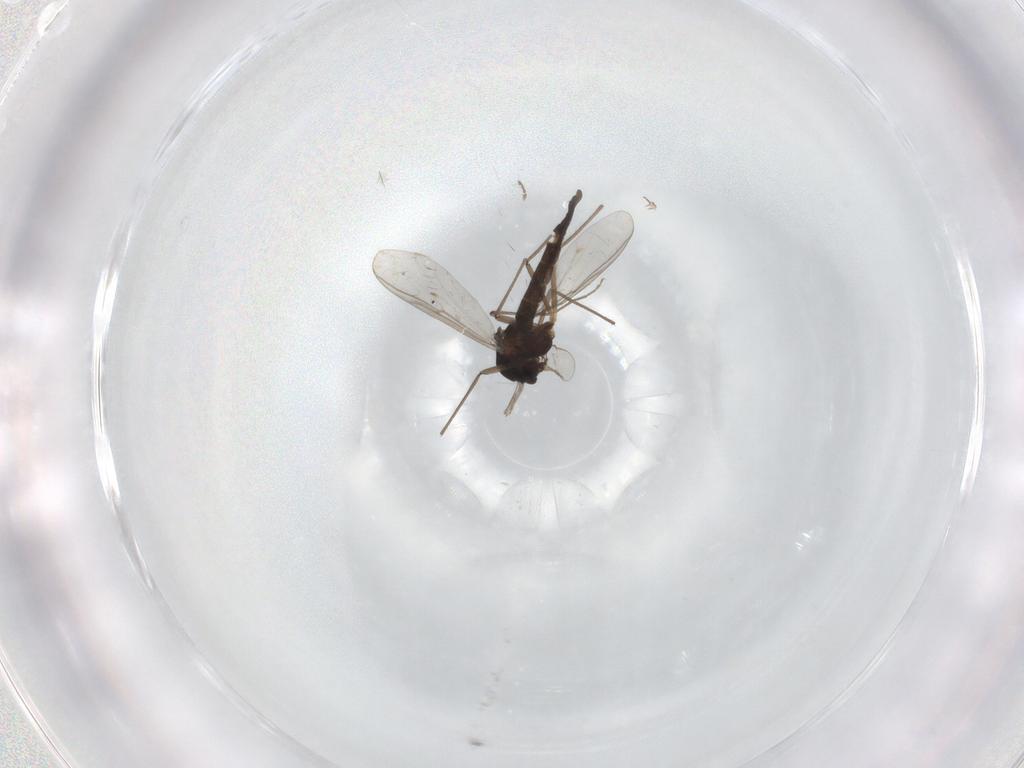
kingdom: Animalia
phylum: Arthropoda
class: Insecta
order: Diptera
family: Chironomidae
